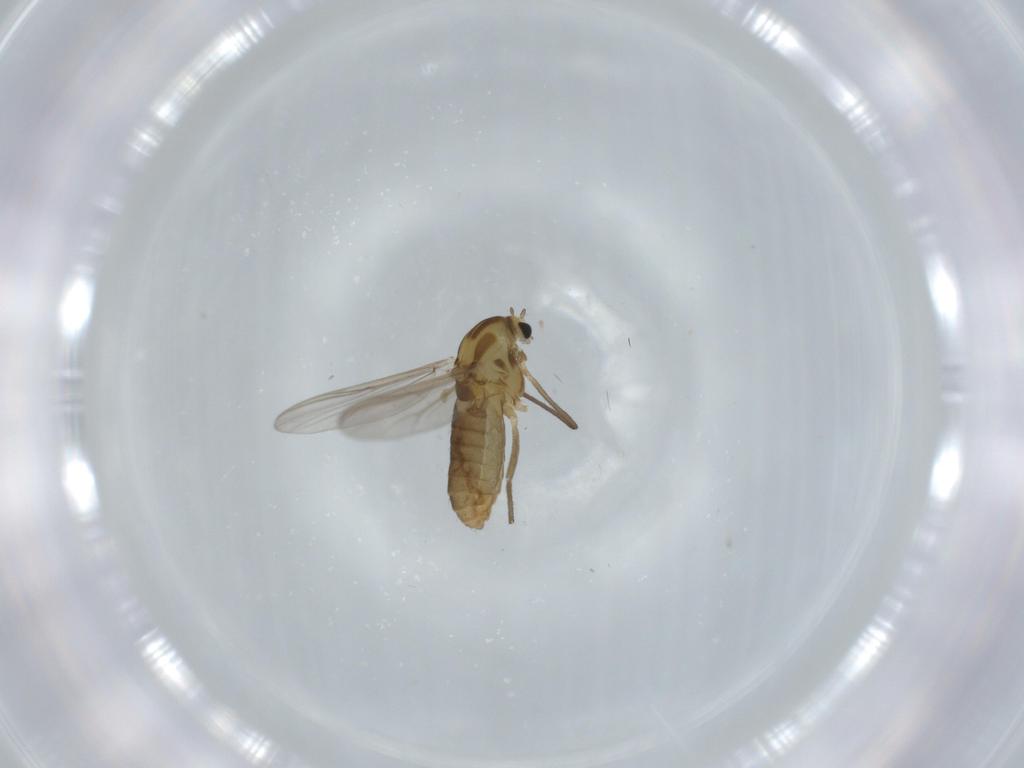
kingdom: Animalia
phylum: Arthropoda
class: Insecta
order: Diptera
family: Chironomidae
